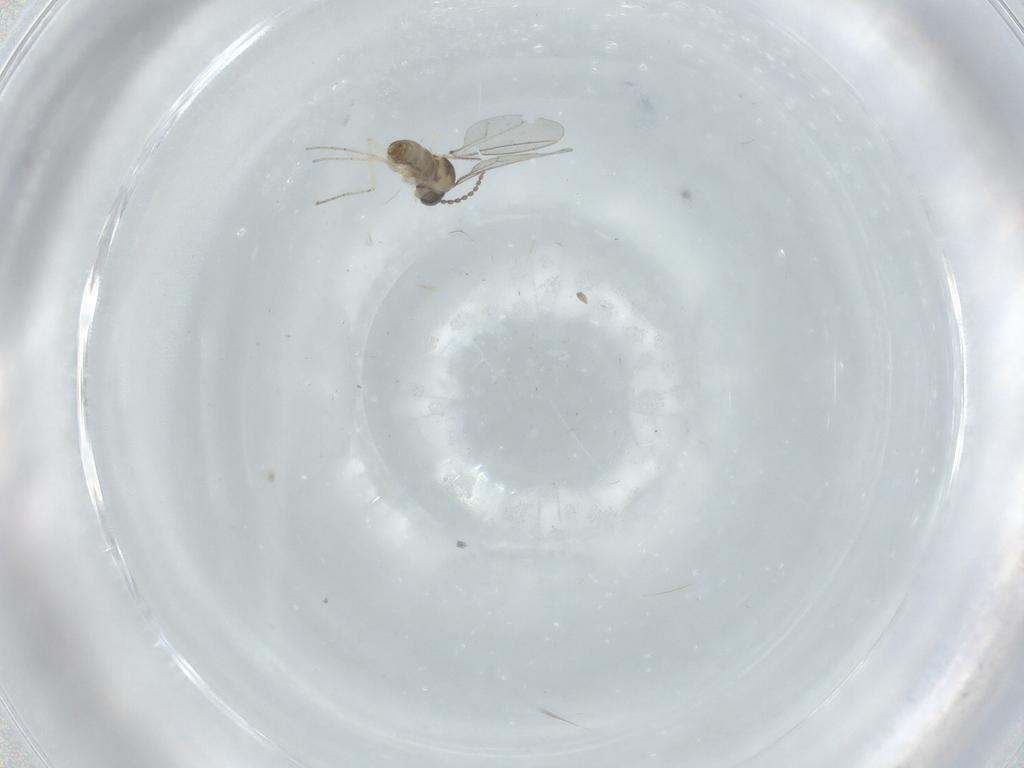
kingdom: Animalia
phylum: Arthropoda
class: Insecta
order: Diptera
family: Cecidomyiidae
